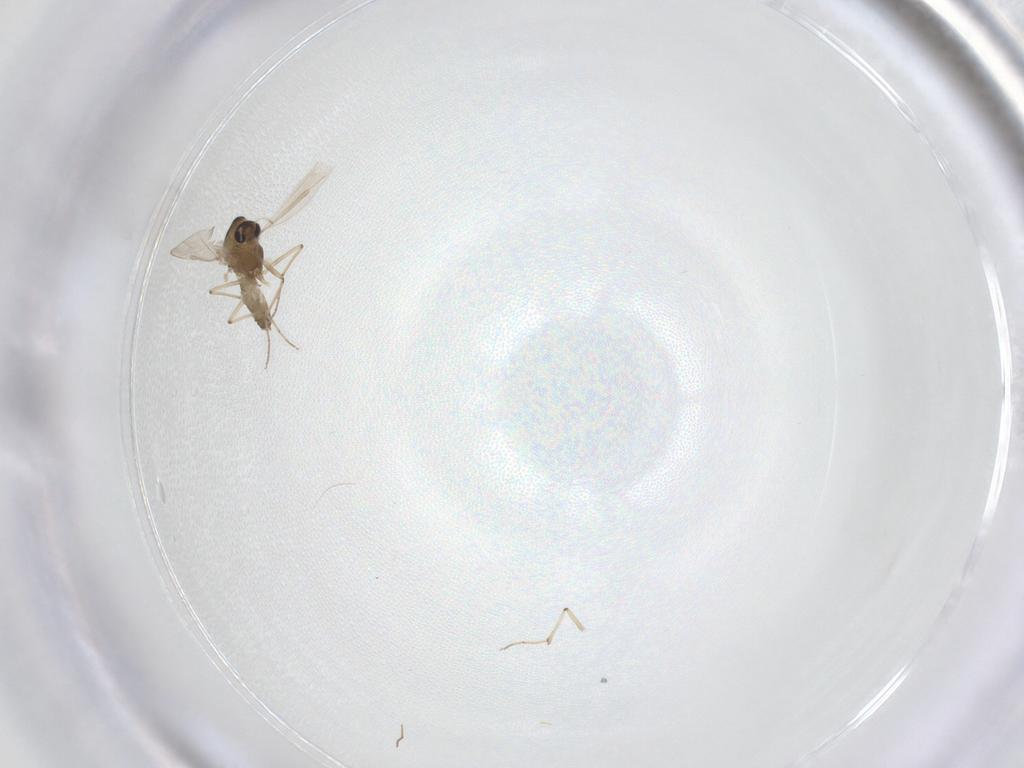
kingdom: Animalia
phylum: Arthropoda
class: Insecta
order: Diptera
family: Chironomidae
